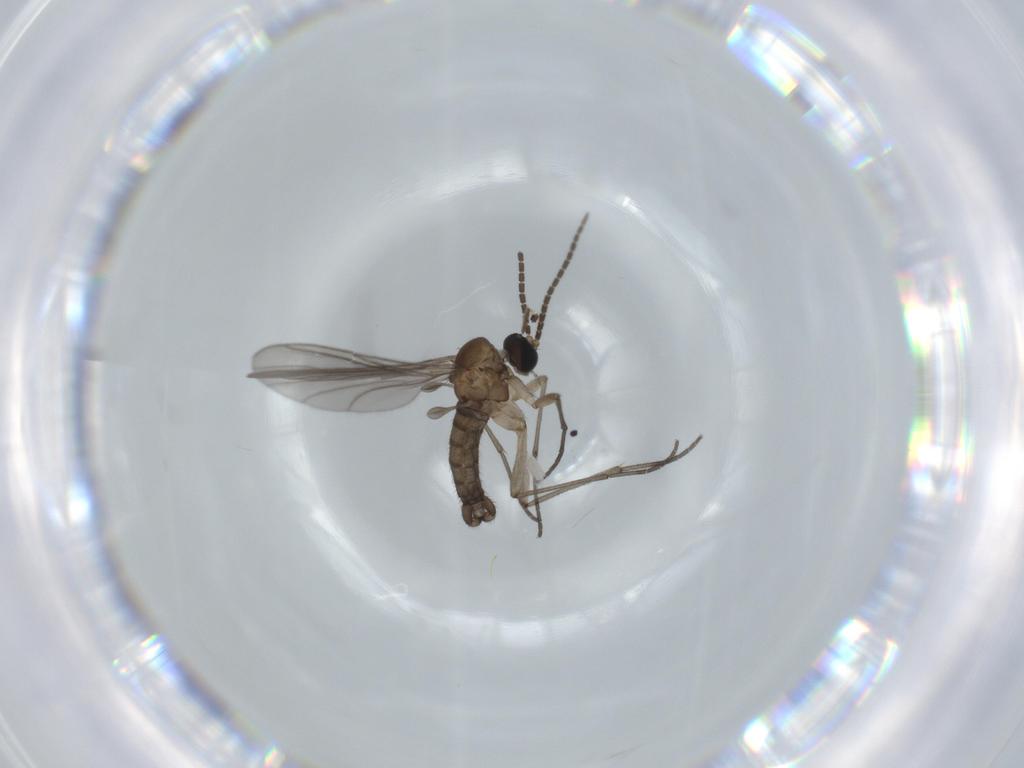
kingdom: Animalia
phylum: Arthropoda
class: Insecta
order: Diptera
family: Sciaridae
